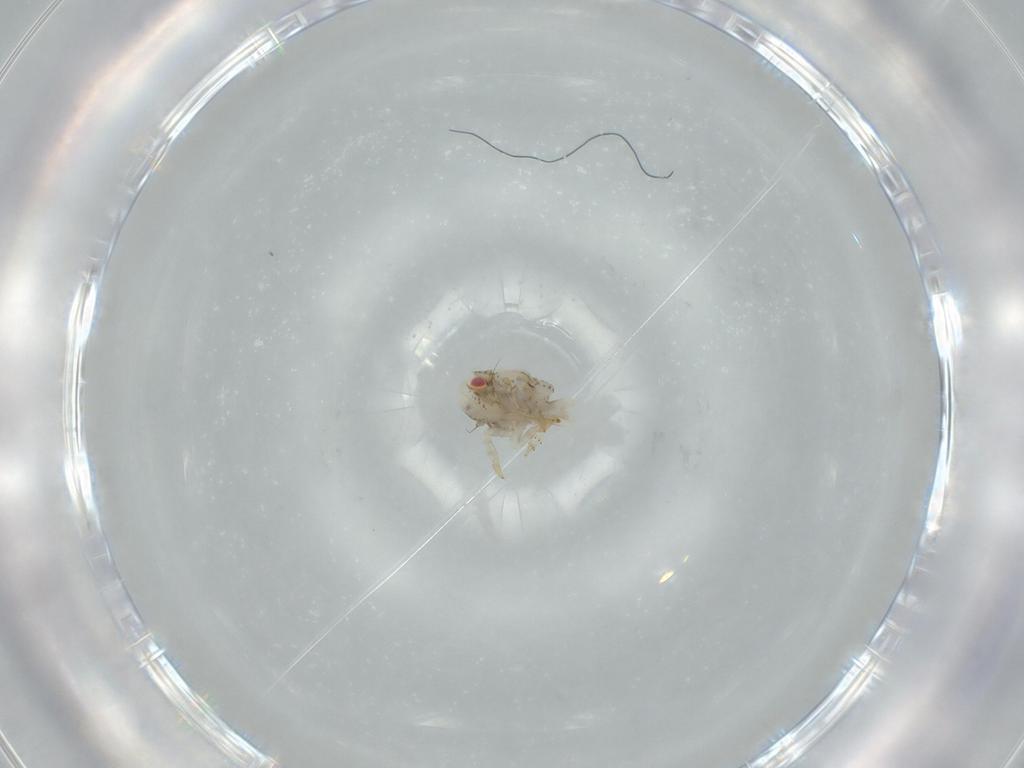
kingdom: Animalia
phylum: Arthropoda
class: Insecta
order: Hemiptera
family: Acanaloniidae
